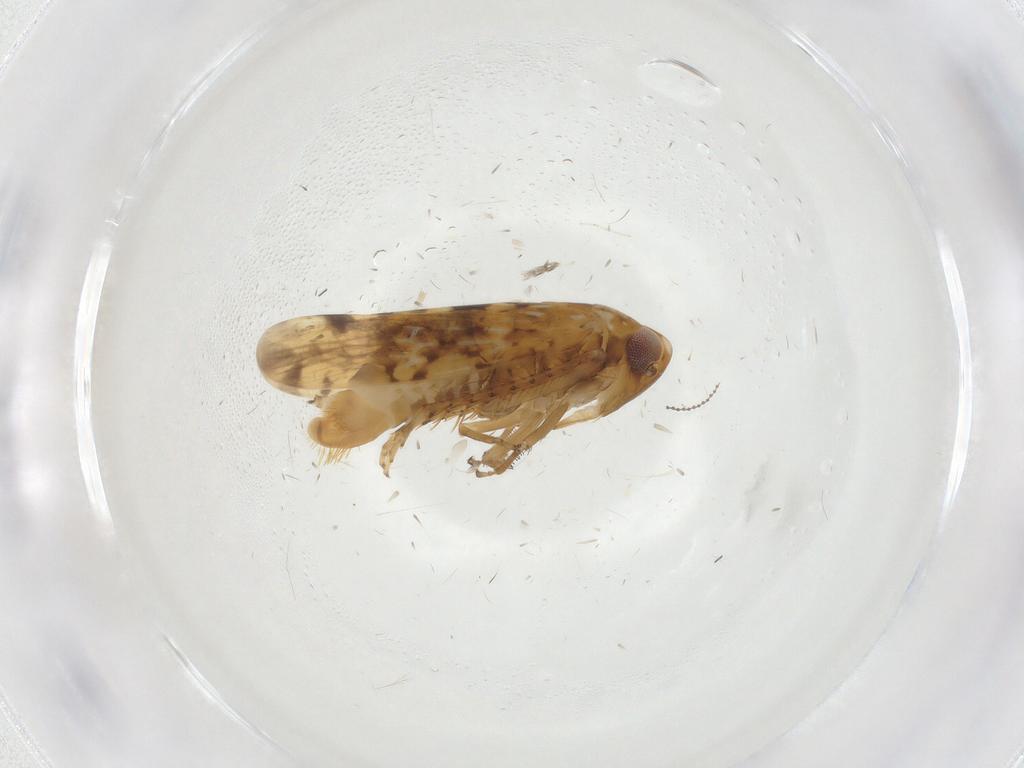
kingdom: Animalia
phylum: Arthropoda
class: Insecta
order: Hemiptera
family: Cicadellidae
